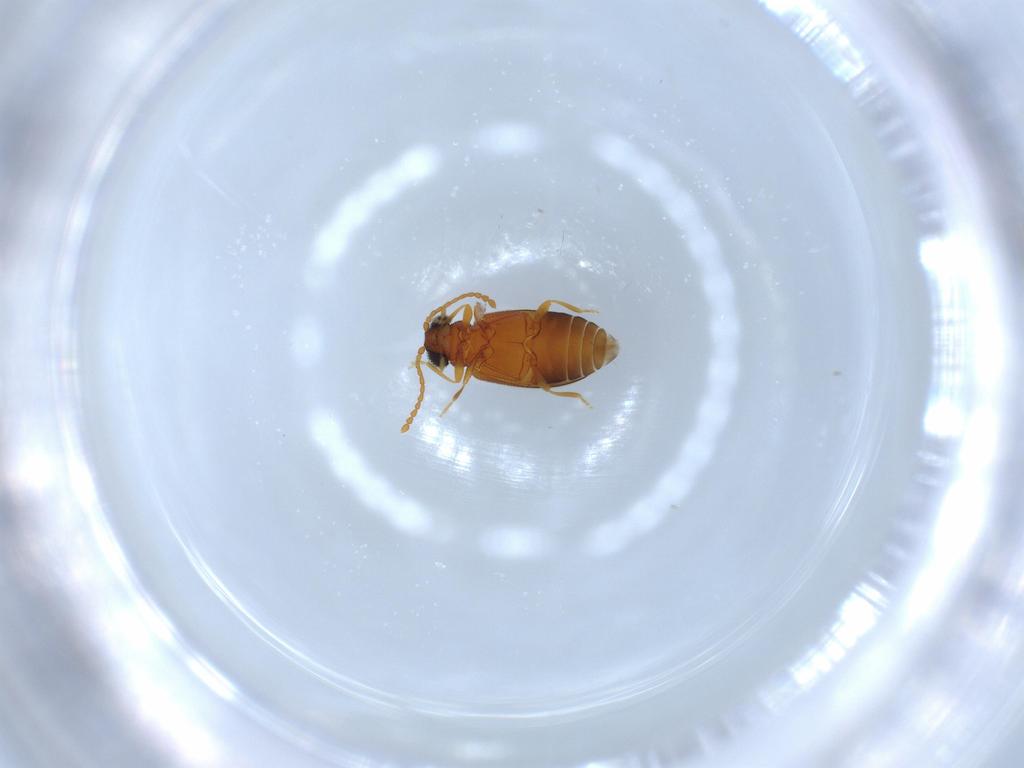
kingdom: Animalia
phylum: Arthropoda
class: Insecta
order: Coleoptera
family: Aderidae
